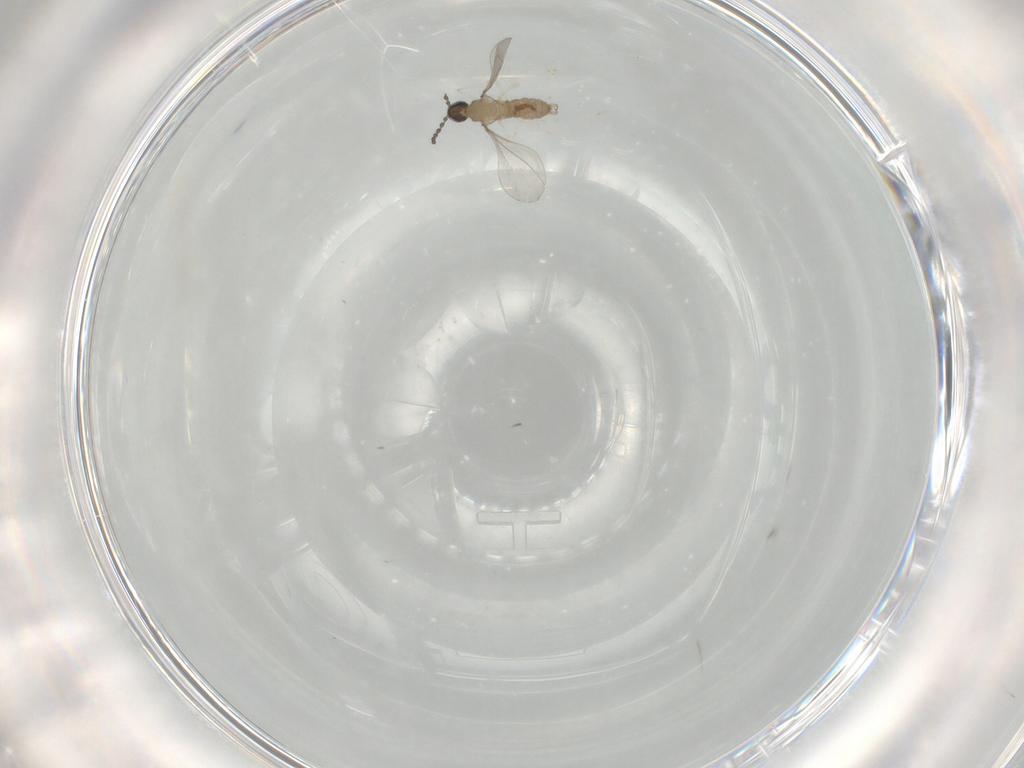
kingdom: Animalia
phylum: Arthropoda
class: Insecta
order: Diptera
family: Cecidomyiidae
